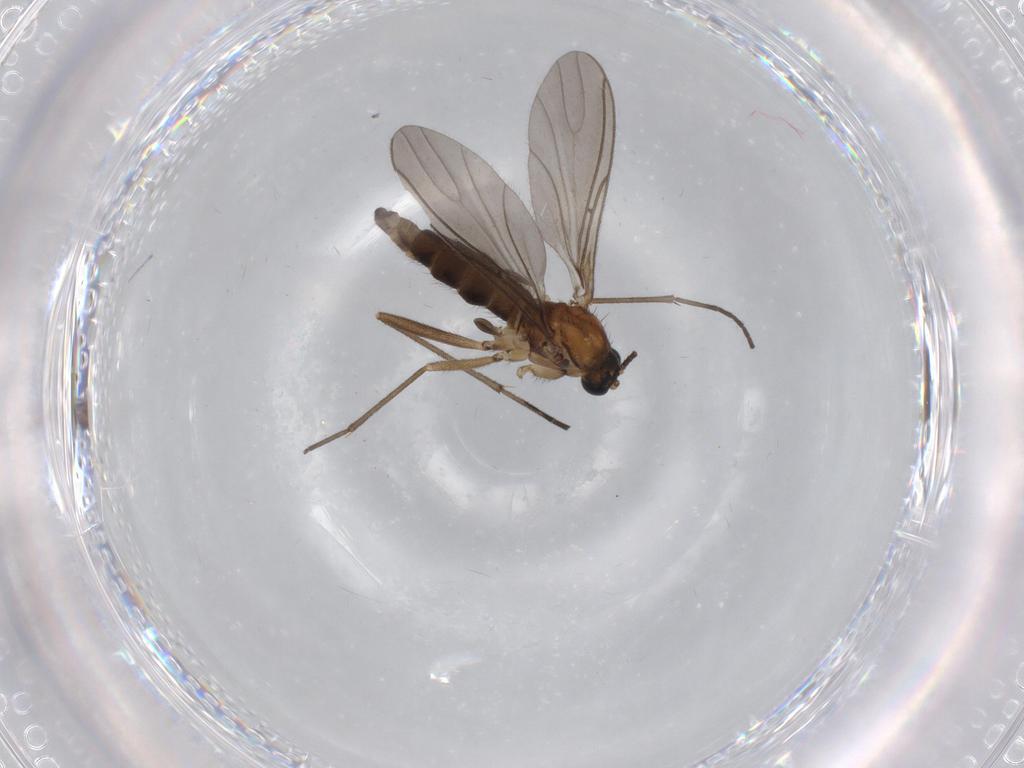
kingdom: Animalia
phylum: Arthropoda
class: Insecta
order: Diptera
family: Sciaridae
